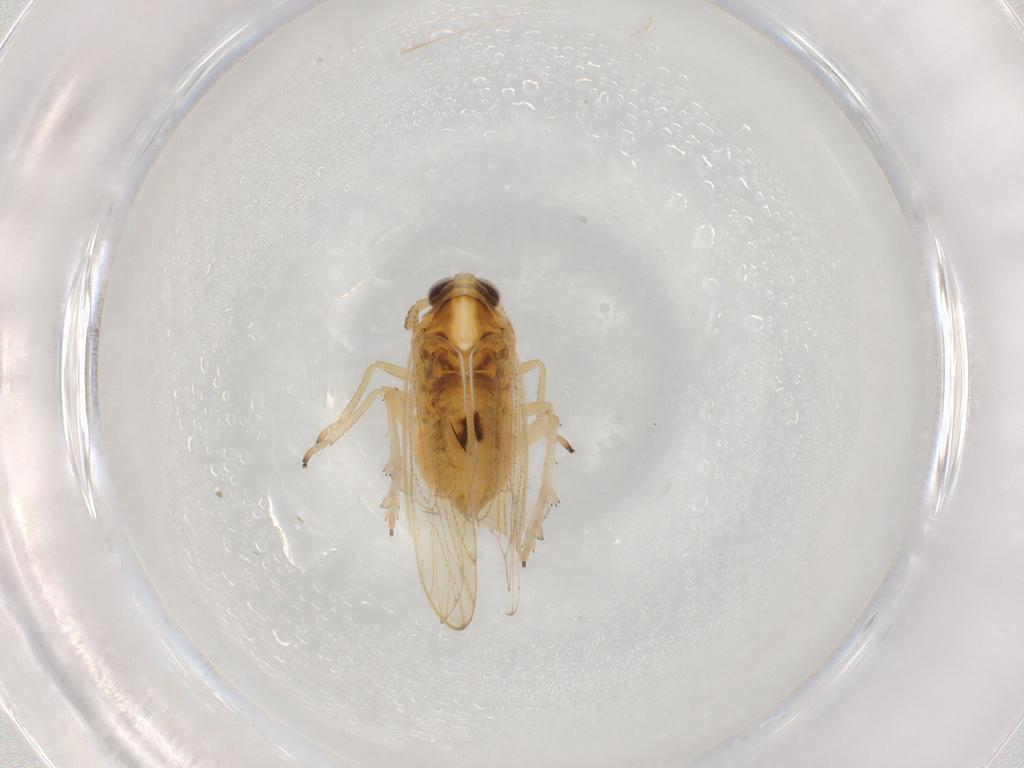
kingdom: Animalia
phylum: Arthropoda
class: Insecta
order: Hemiptera
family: Delphacidae
